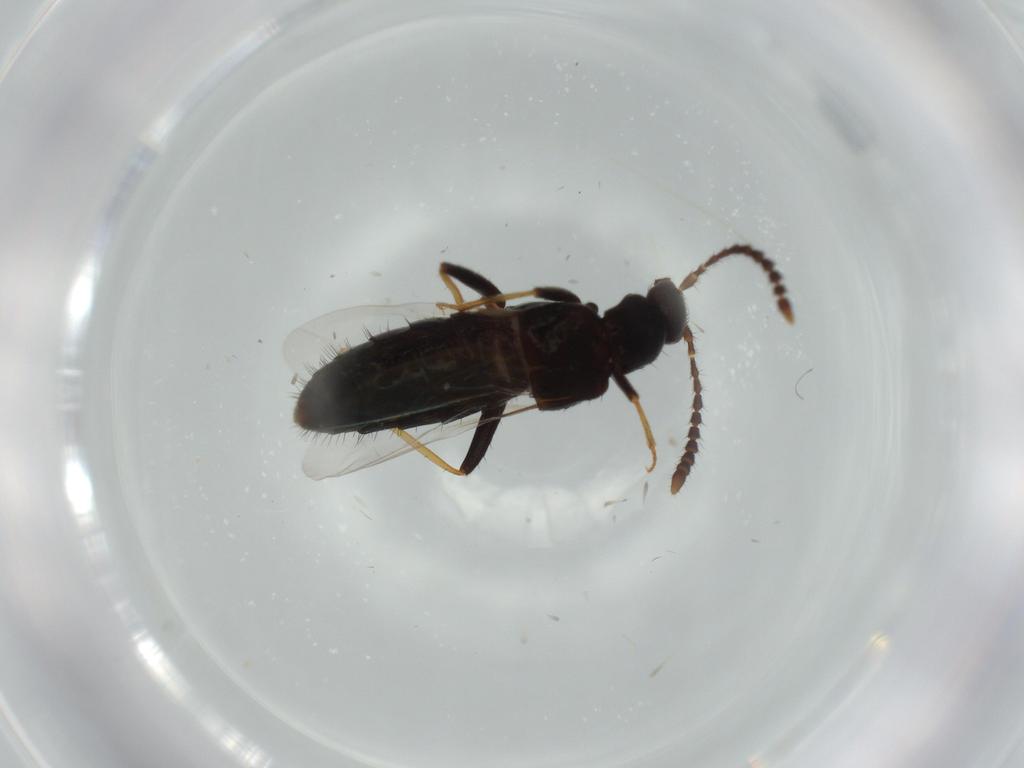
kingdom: Animalia
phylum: Arthropoda
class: Insecta
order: Coleoptera
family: Staphylinidae
